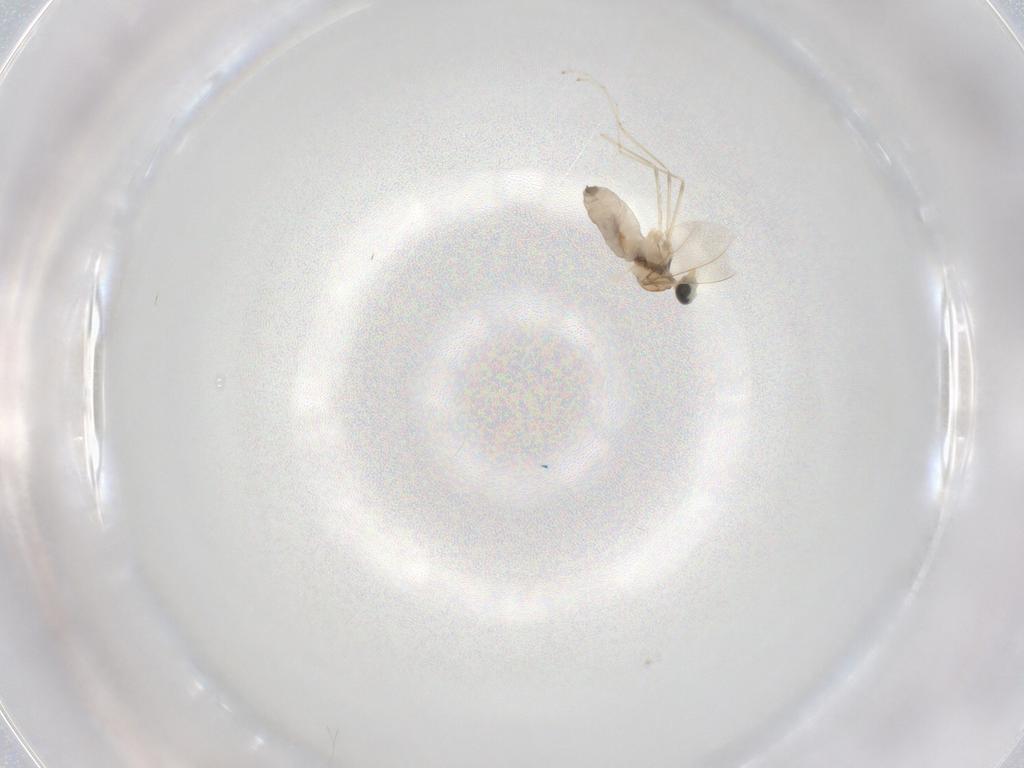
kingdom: Animalia
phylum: Arthropoda
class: Insecta
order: Diptera
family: Cecidomyiidae
